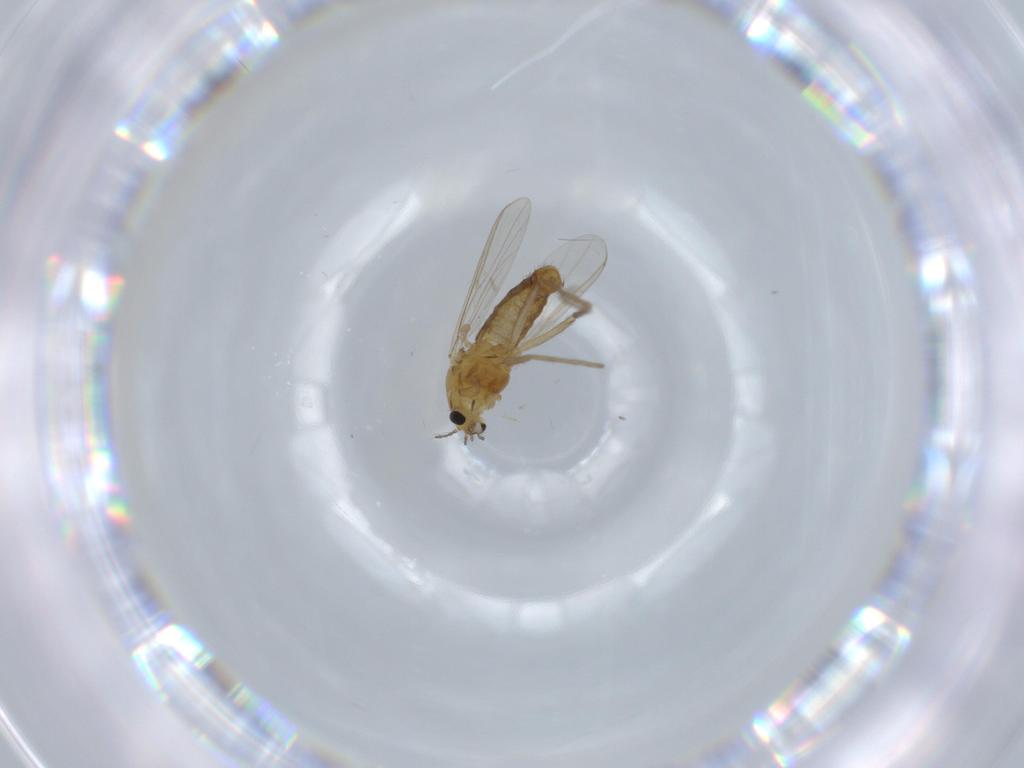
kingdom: Animalia
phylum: Arthropoda
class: Insecta
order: Diptera
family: Chironomidae
